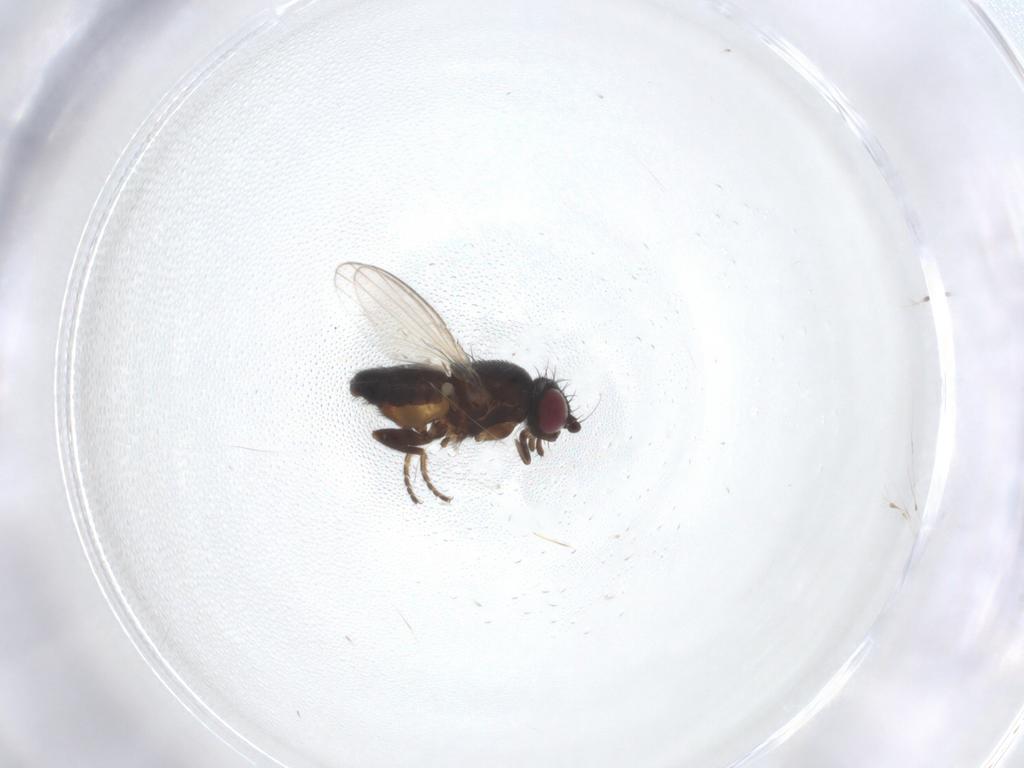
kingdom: Animalia
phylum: Arthropoda
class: Insecta
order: Diptera
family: Milichiidae
